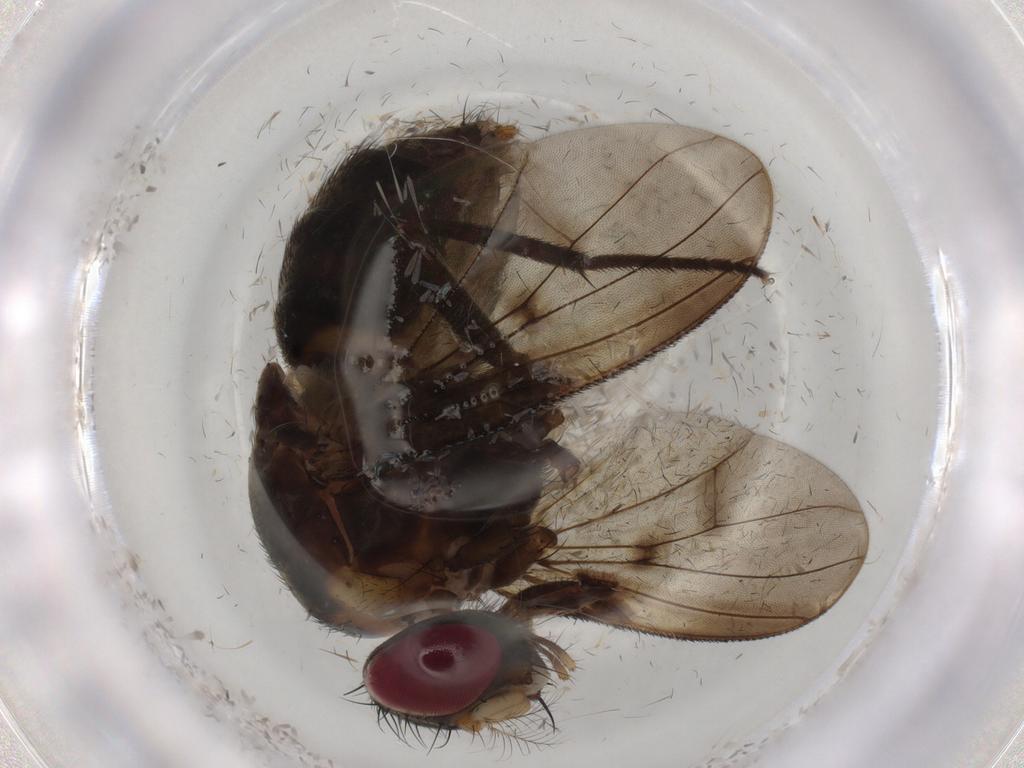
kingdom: Animalia
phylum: Arthropoda
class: Insecta
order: Diptera
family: Muscidae
